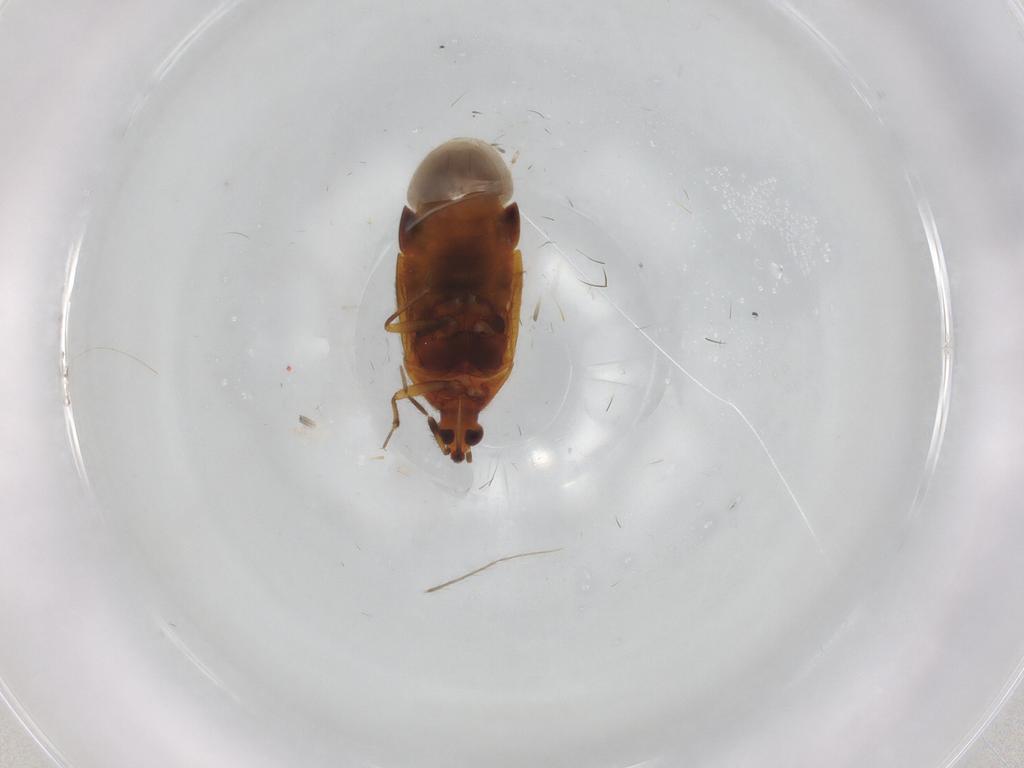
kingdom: Animalia
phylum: Arthropoda
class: Insecta
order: Hemiptera
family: Anthocoridae
